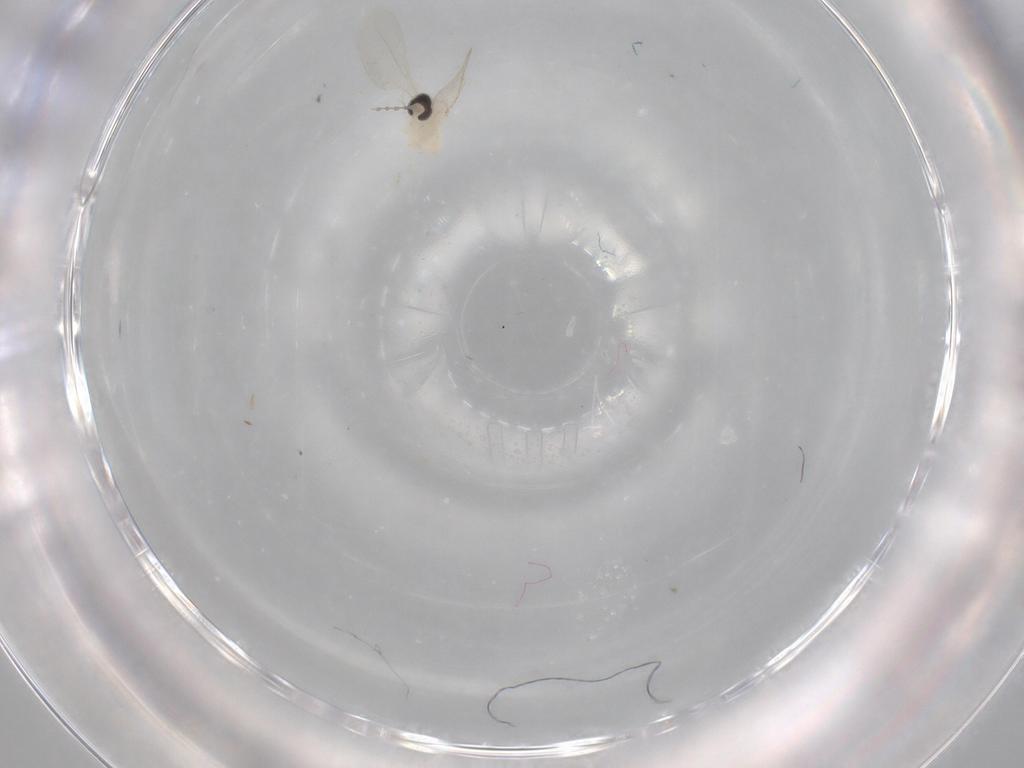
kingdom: Animalia
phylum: Arthropoda
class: Insecta
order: Diptera
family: Cecidomyiidae
